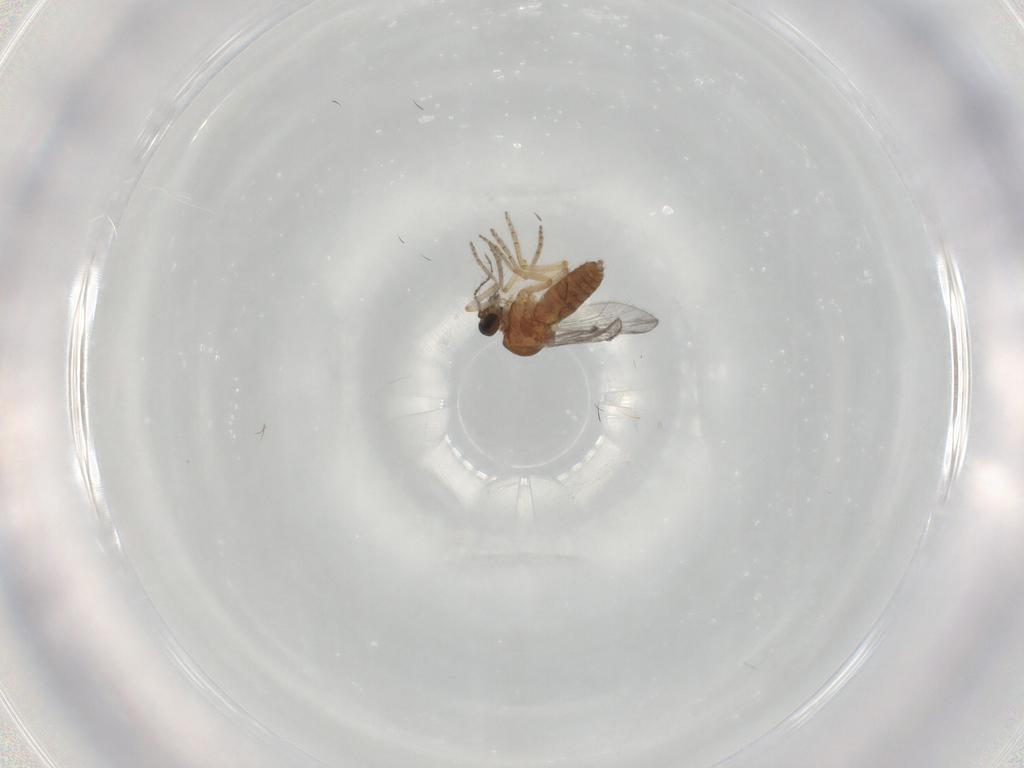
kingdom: Animalia
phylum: Arthropoda
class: Insecta
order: Diptera
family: Ceratopogonidae
